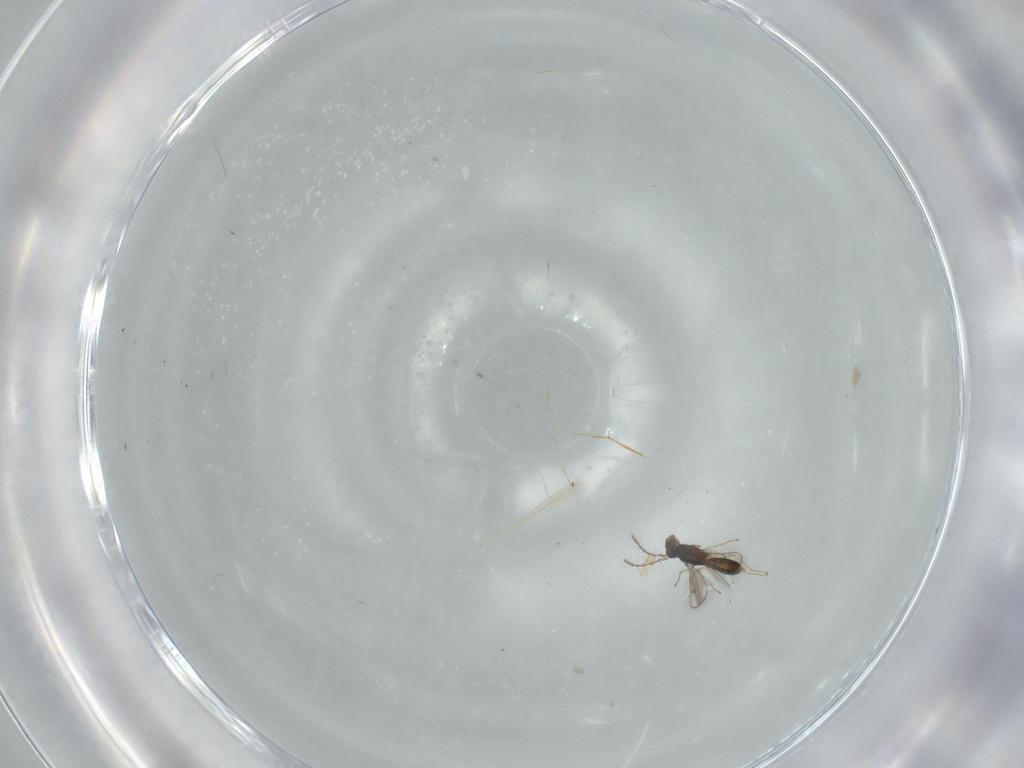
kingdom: Animalia
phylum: Arthropoda
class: Insecta
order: Hymenoptera
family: Pteromalidae
